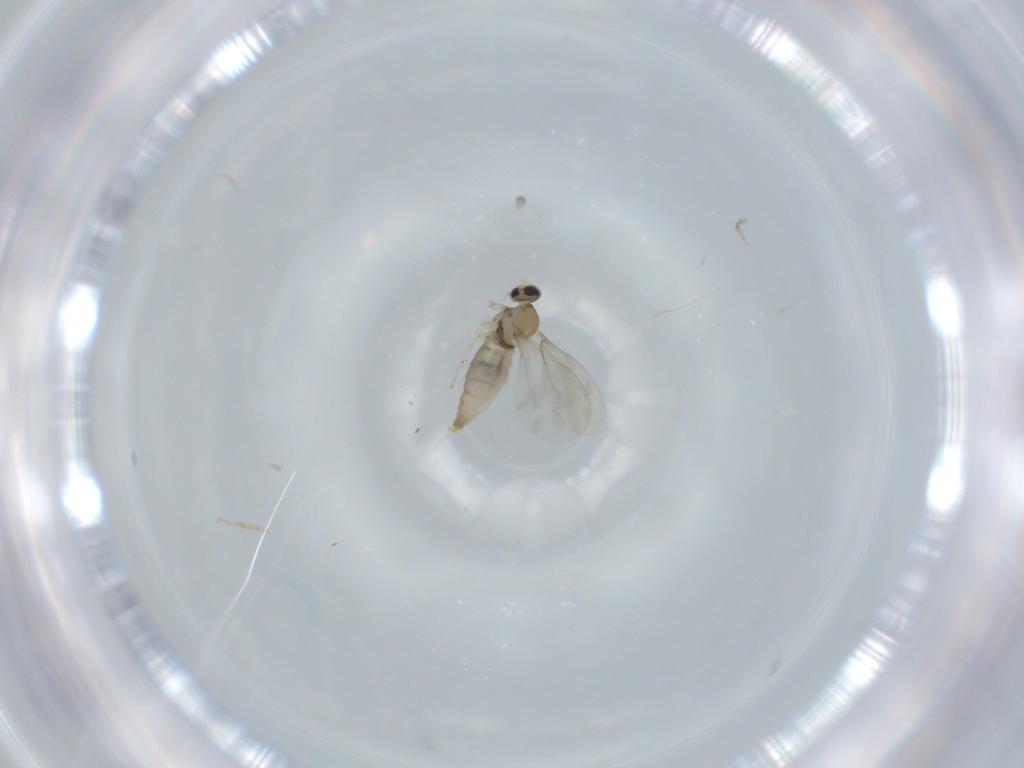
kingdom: Animalia
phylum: Arthropoda
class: Insecta
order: Diptera
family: Cecidomyiidae
